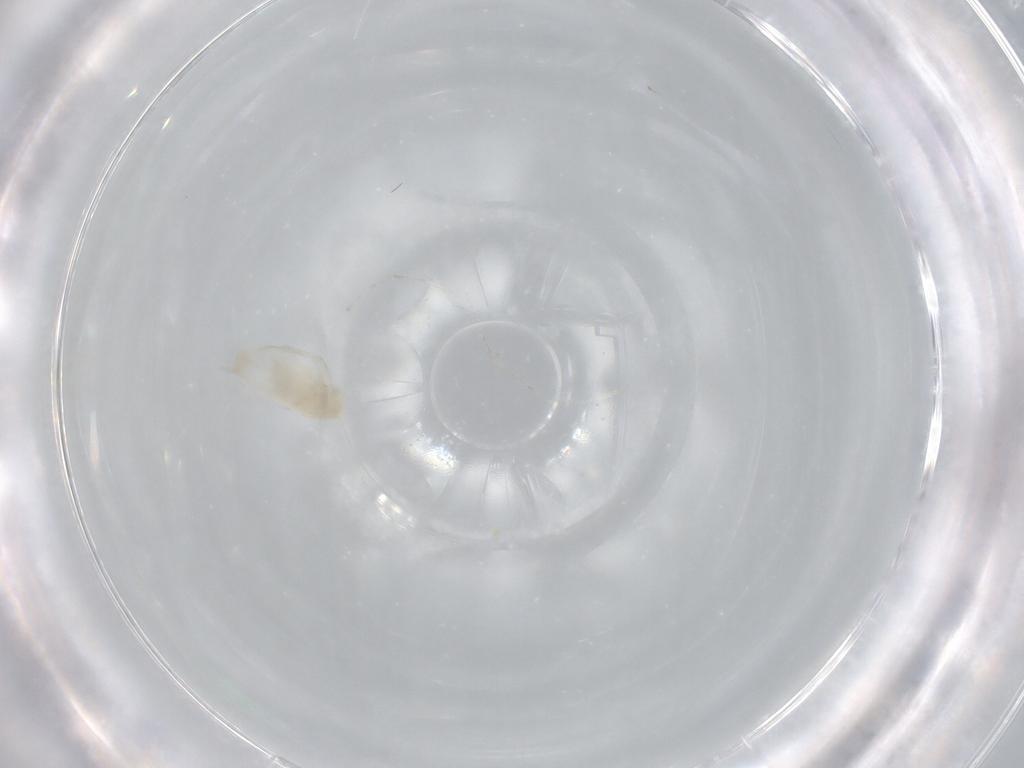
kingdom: Animalia
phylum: Arthropoda
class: Branchiopoda
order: Diplostraca
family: Daphniidae
